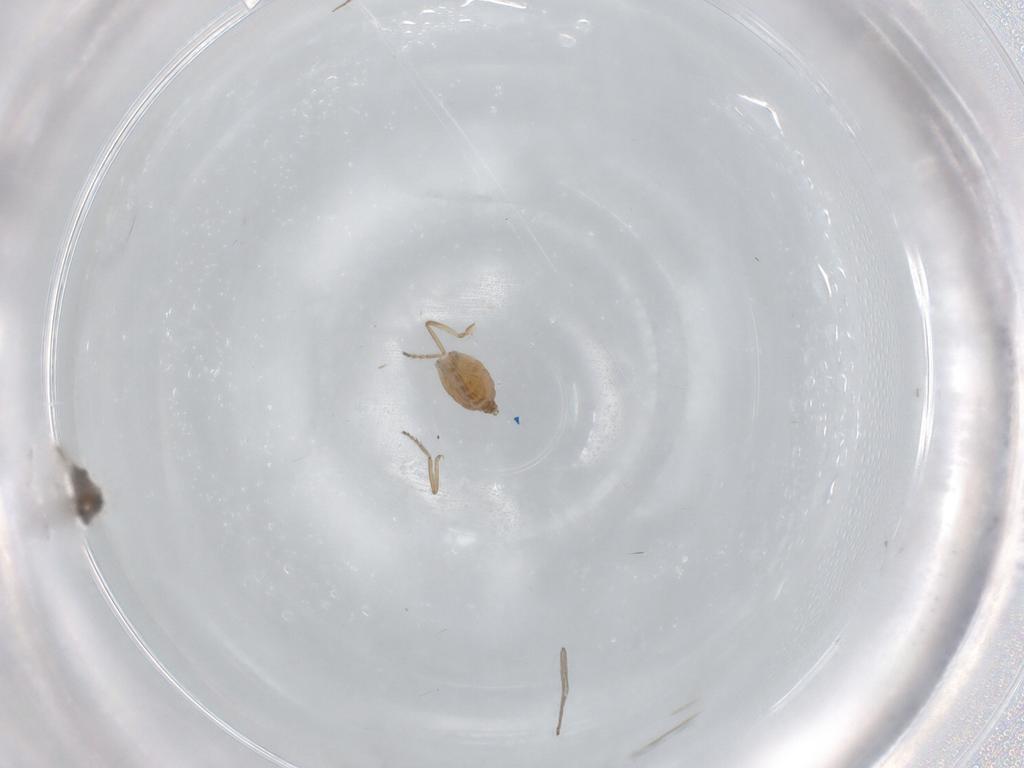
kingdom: Animalia
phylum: Arthropoda
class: Insecta
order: Diptera
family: Ceratopogonidae
